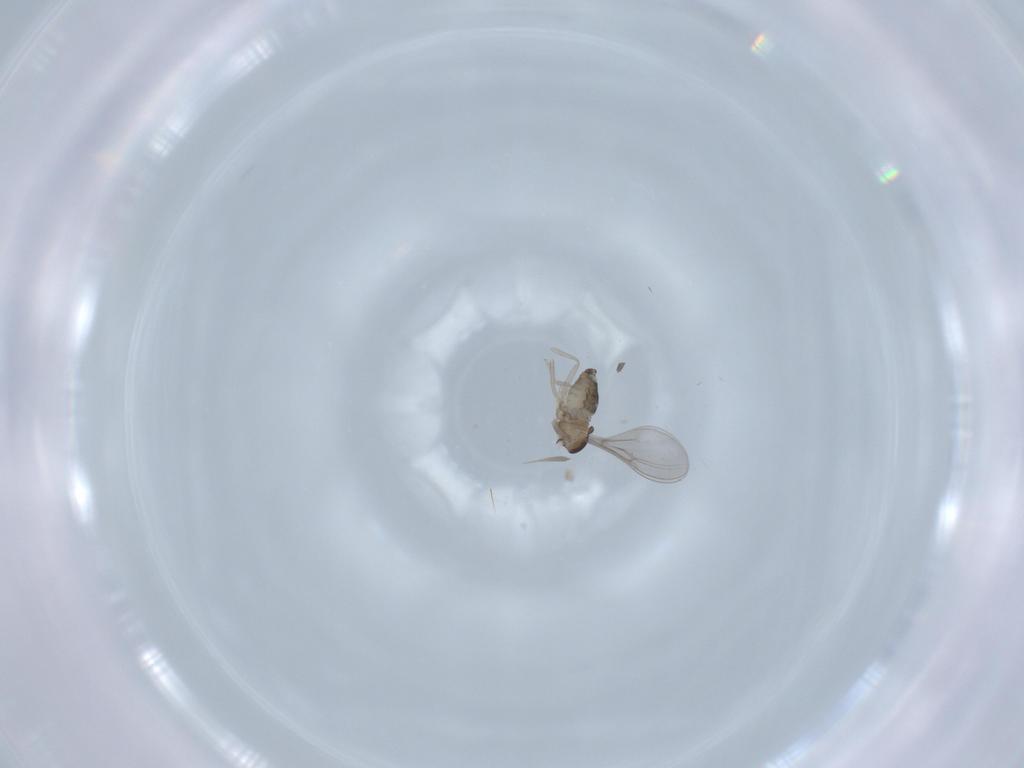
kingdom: Animalia
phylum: Arthropoda
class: Insecta
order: Diptera
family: Cecidomyiidae
